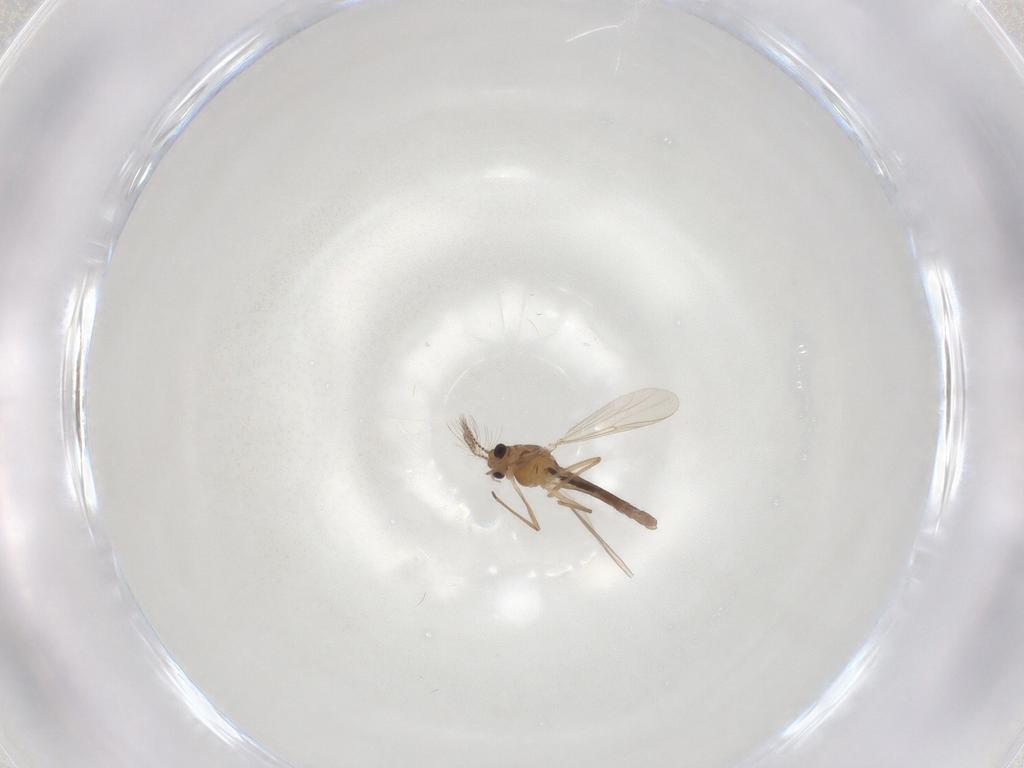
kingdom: Animalia
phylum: Arthropoda
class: Insecta
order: Diptera
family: Chironomidae
